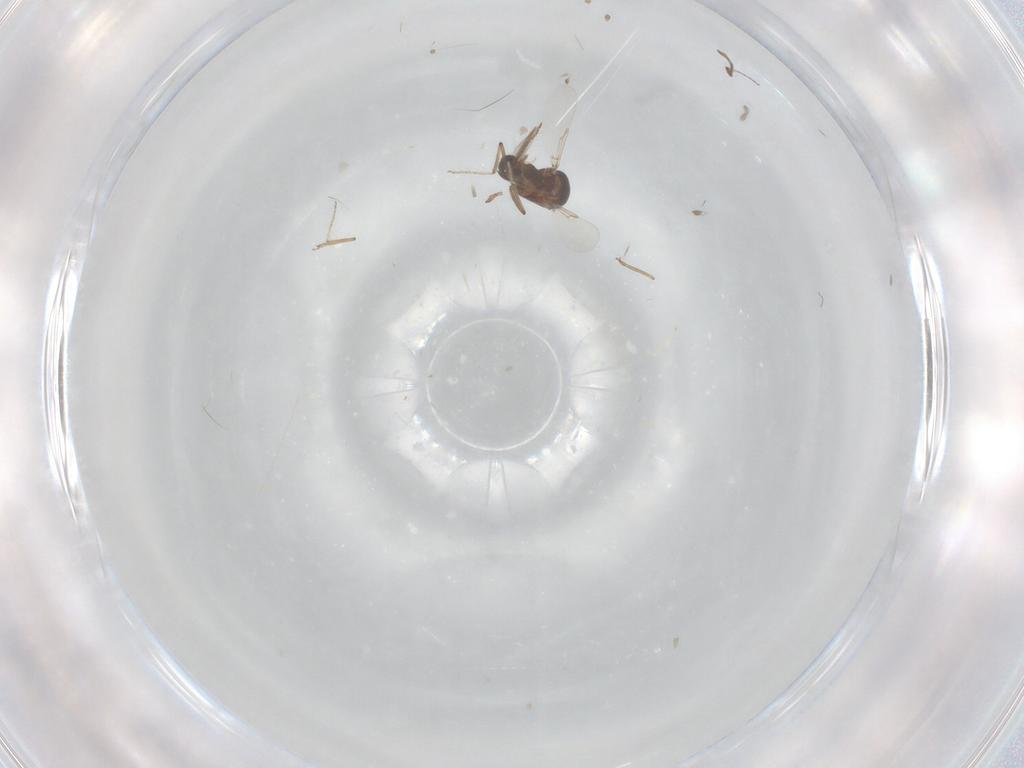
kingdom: Animalia
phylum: Arthropoda
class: Insecta
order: Diptera
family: Ceratopogonidae
